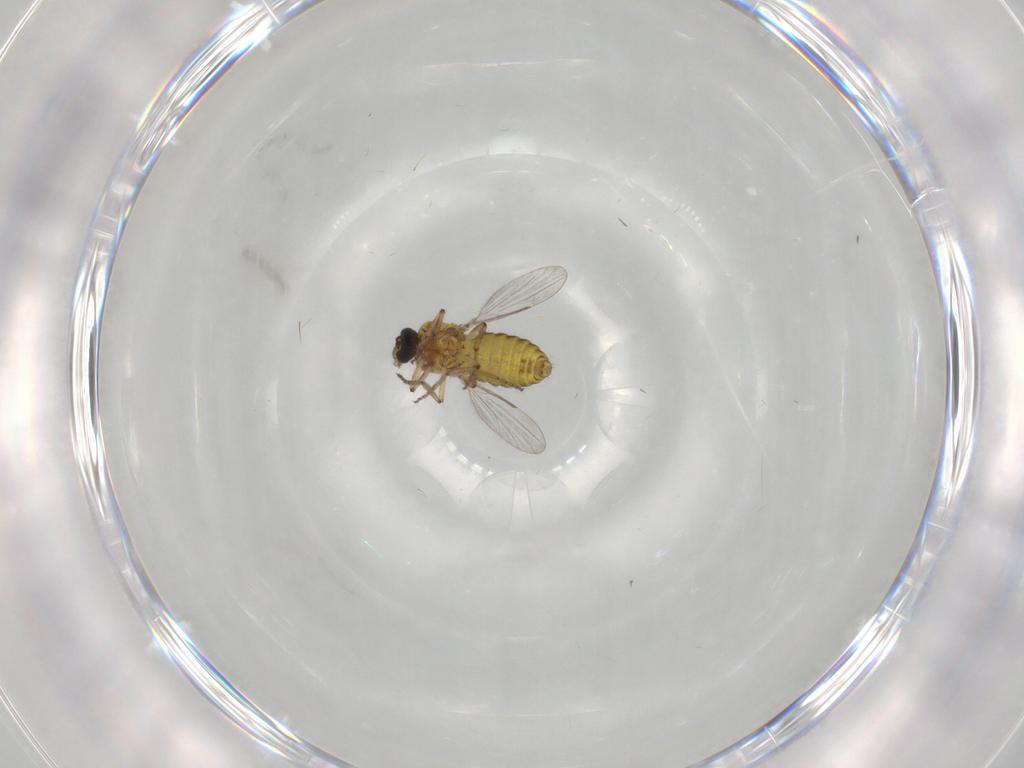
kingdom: Animalia
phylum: Arthropoda
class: Insecta
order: Diptera
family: Ceratopogonidae
